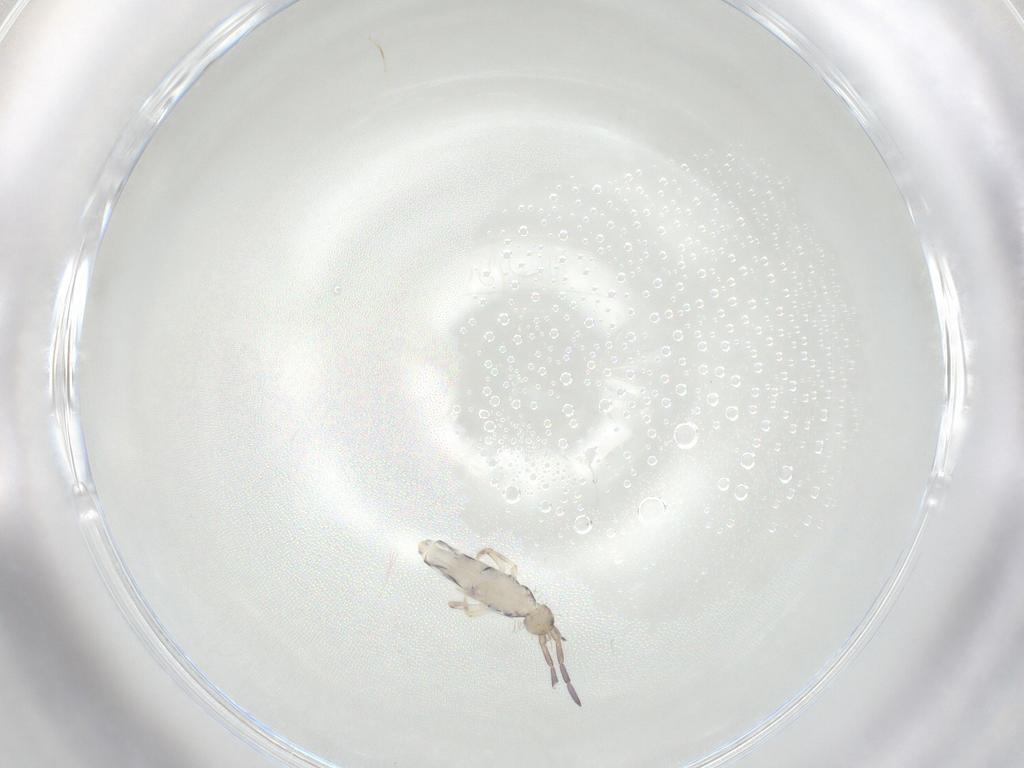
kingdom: Animalia
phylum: Arthropoda
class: Collembola
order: Entomobryomorpha
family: Entomobryidae
